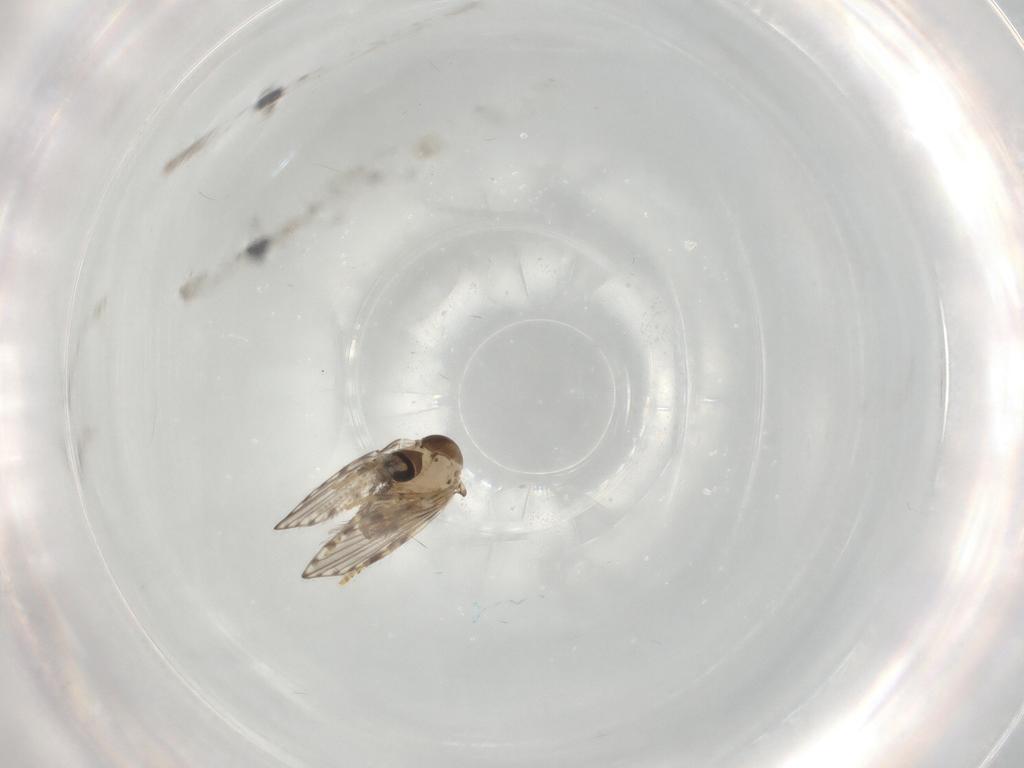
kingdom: Animalia
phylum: Arthropoda
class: Insecta
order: Diptera
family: Psychodidae
